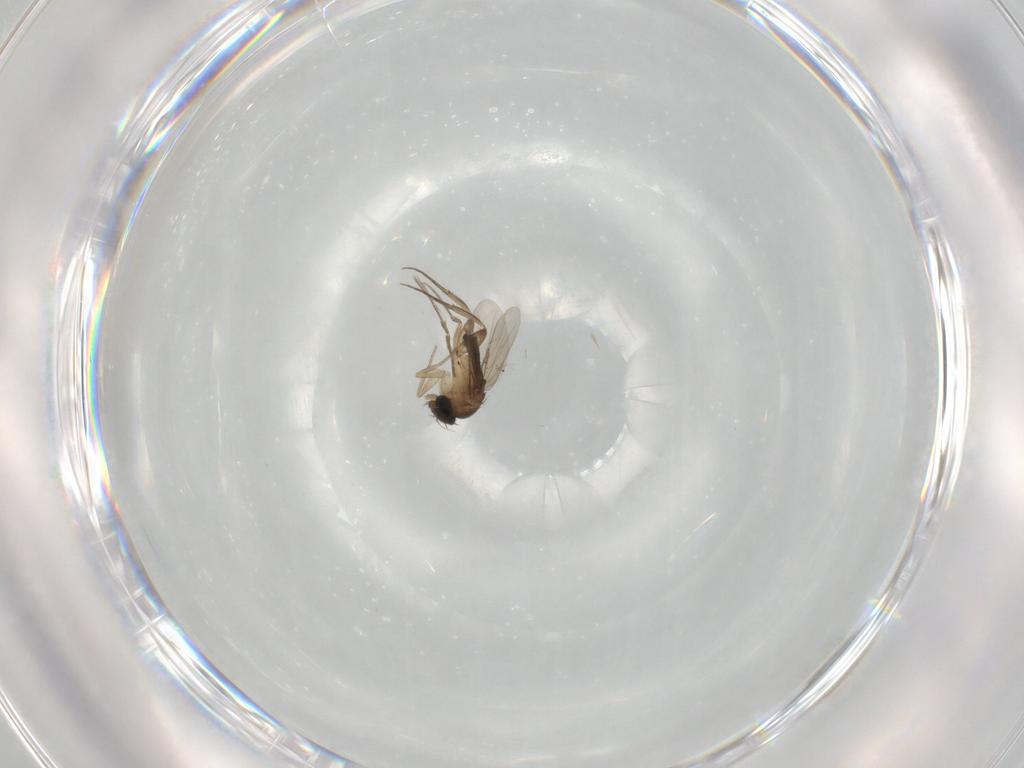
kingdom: Animalia
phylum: Arthropoda
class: Insecta
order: Diptera
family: Phoridae
